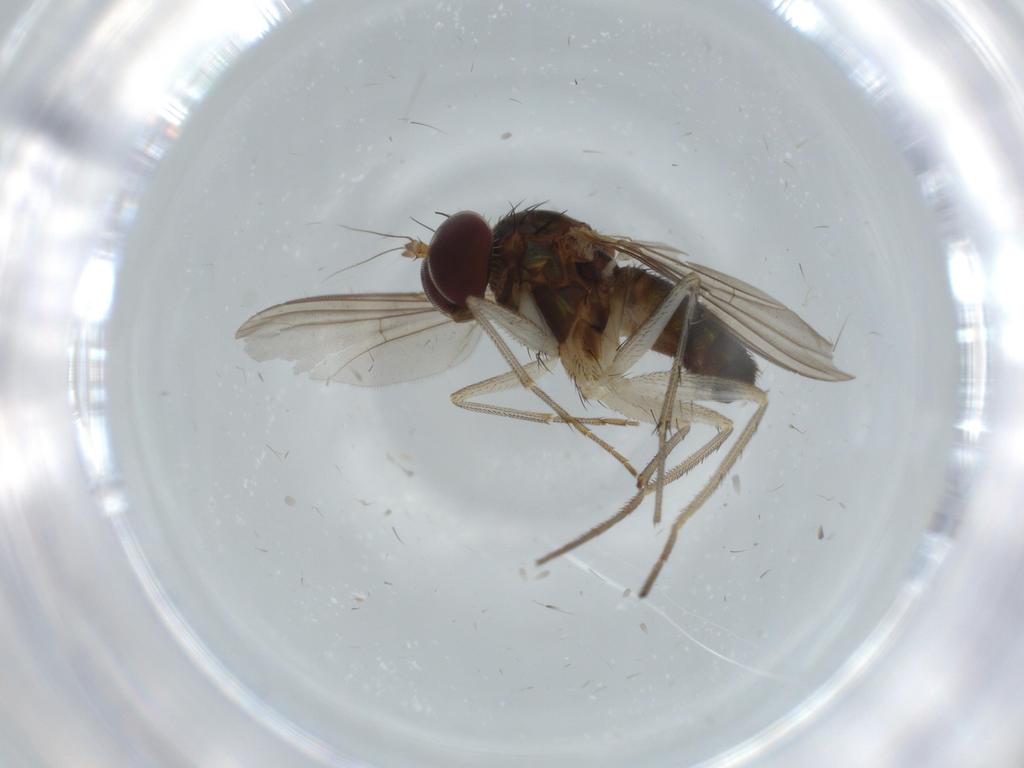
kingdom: Animalia
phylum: Arthropoda
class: Insecta
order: Diptera
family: Dolichopodidae
